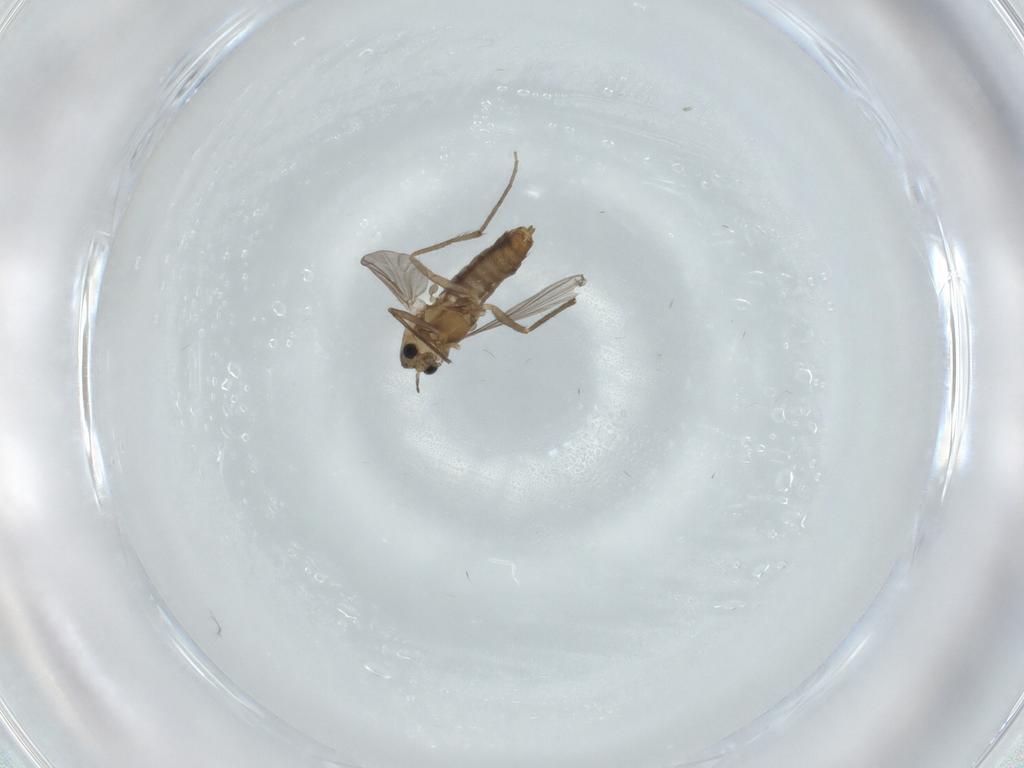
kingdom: Animalia
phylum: Arthropoda
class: Insecta
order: Diptera
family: Chironomidae
